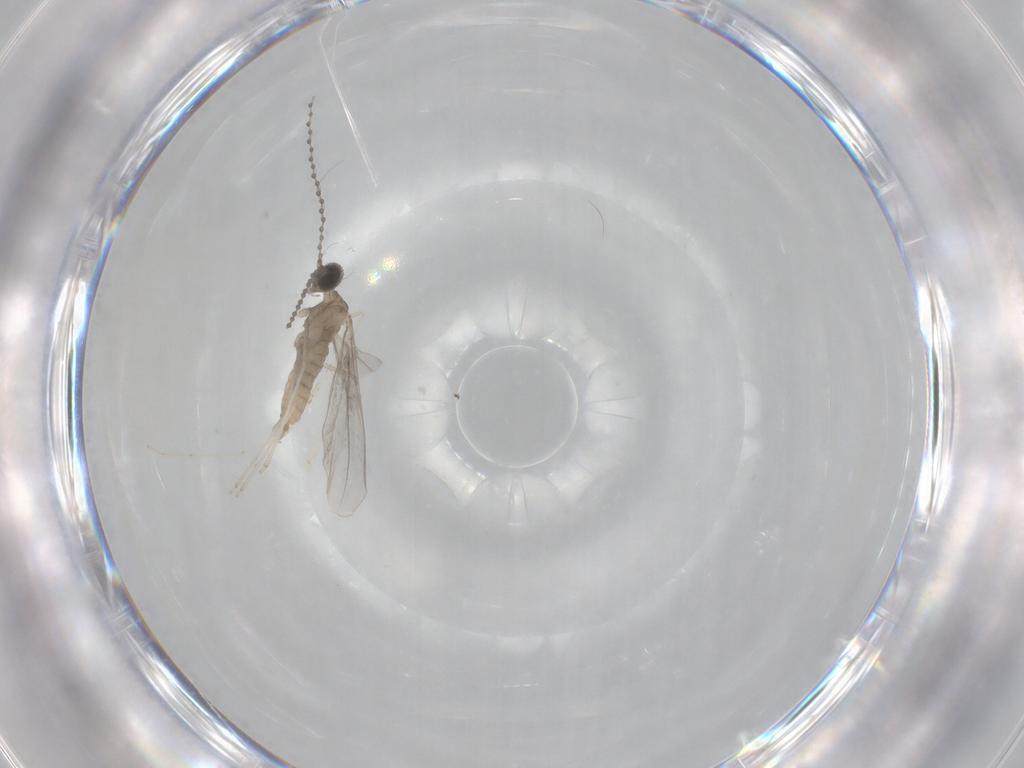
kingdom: Animalia
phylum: Arthropoda
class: Insecta
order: Diptera
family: Cecidomyiidae
